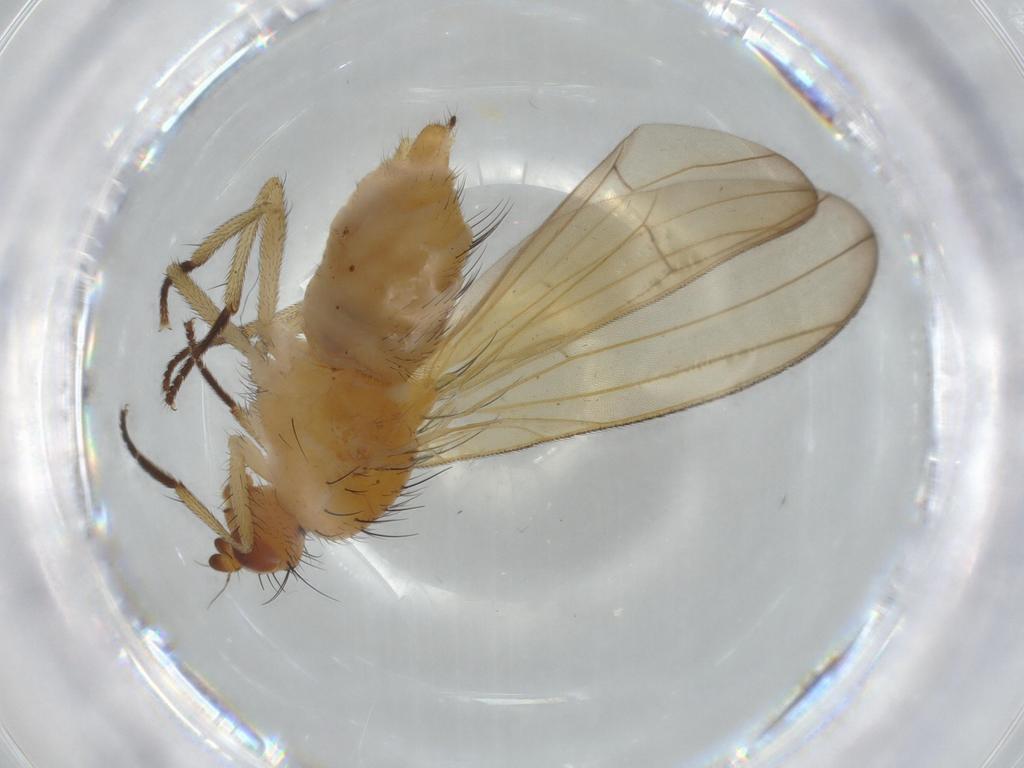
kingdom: Animalia
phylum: Arthropoda
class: Insecta
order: Diptera
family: Lauxaniidae
